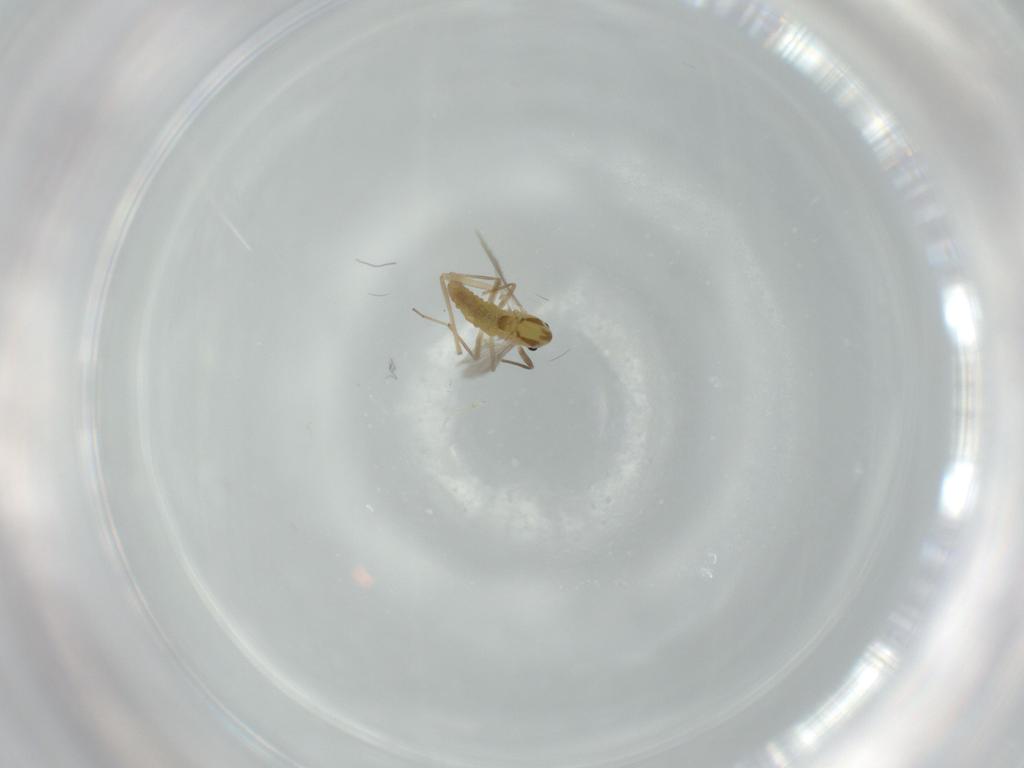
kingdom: Animalia
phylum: Arthropoda
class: Insecta
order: Diptera
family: Chironomidae
